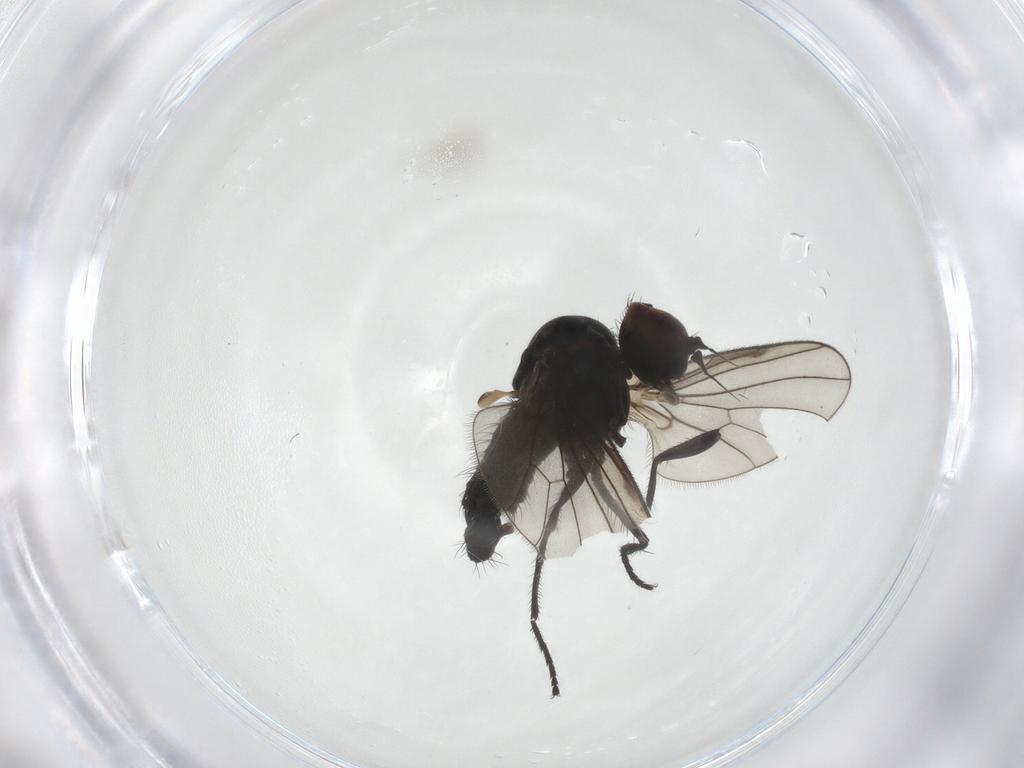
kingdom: Animalia
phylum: Arthropoda
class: Insecta
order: Diptera
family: Dolichopodidae
